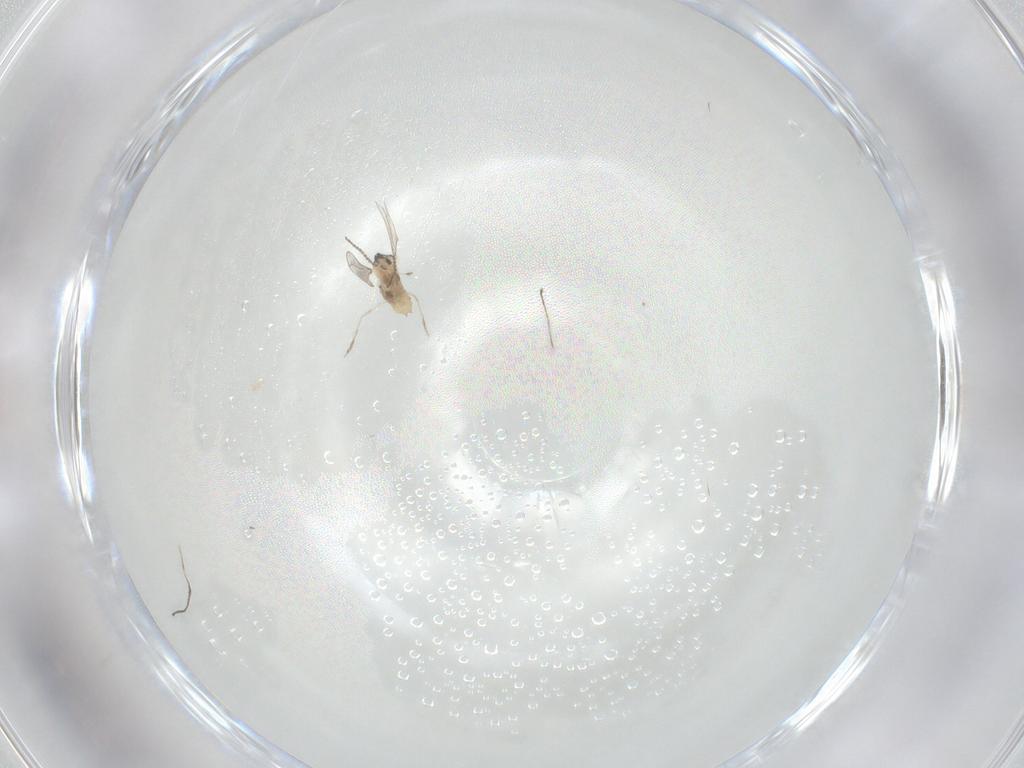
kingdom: Animalia
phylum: Arthropoda
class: Insecta
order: Diptera
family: Cecidomyiidae
